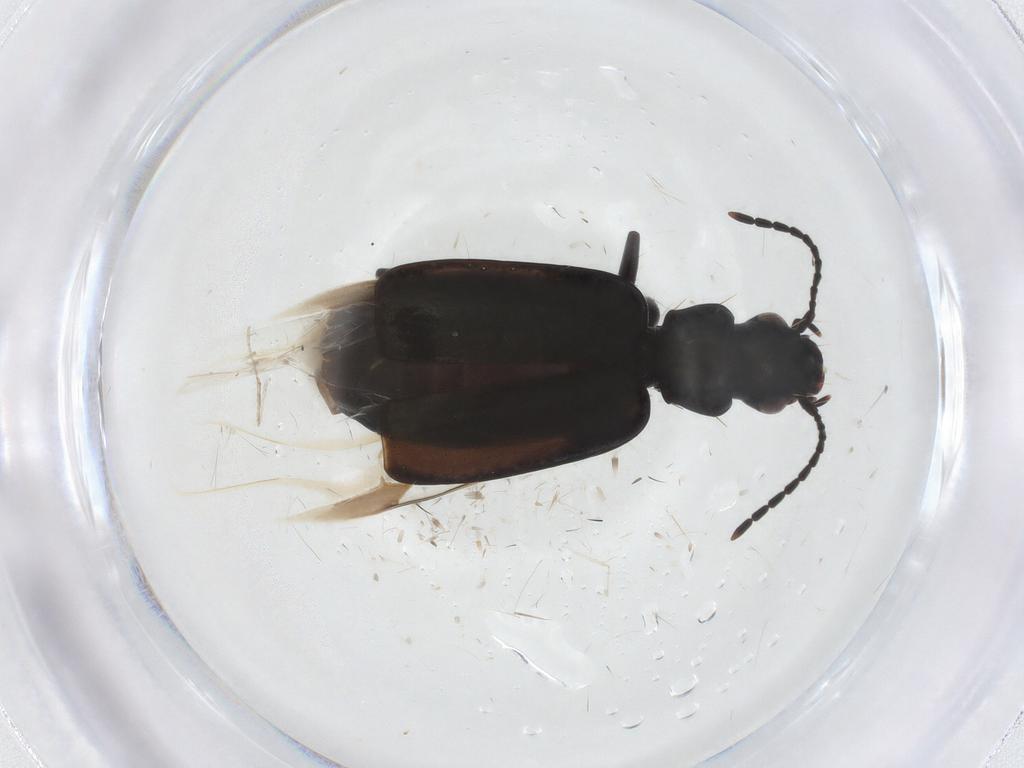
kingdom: Animalia
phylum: Arthropoda
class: Insecta
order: Coleoptera
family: Carabidae
